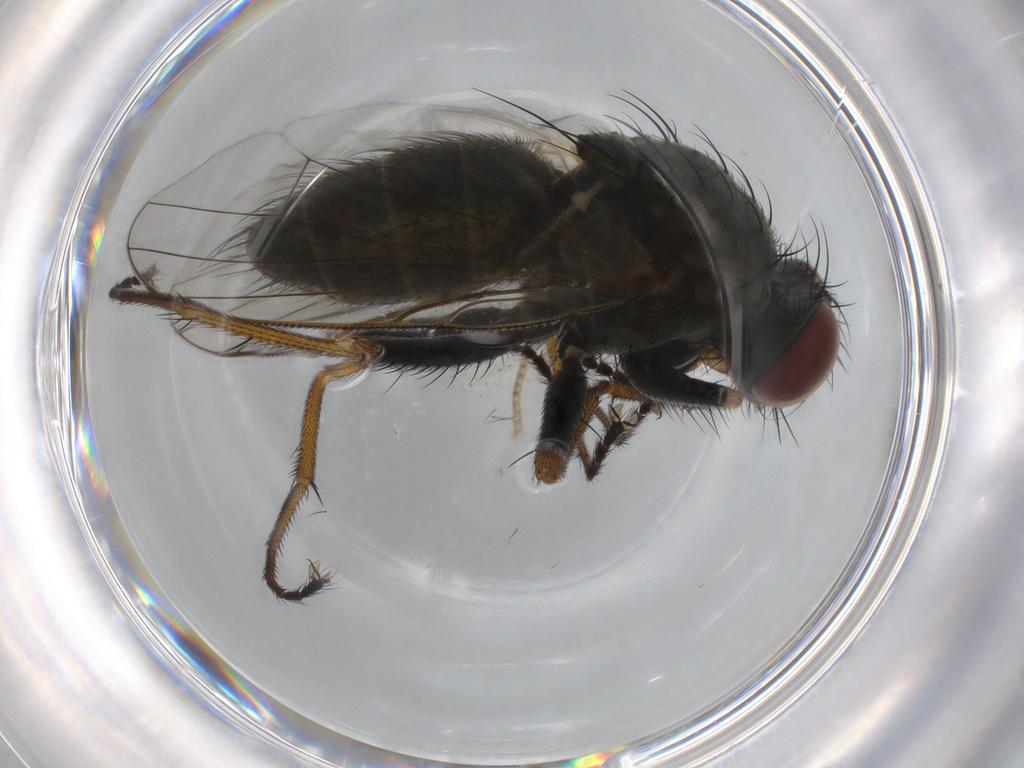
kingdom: Animalia
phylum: Arthropoda
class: Insecta
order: Diptera
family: Muscidae
